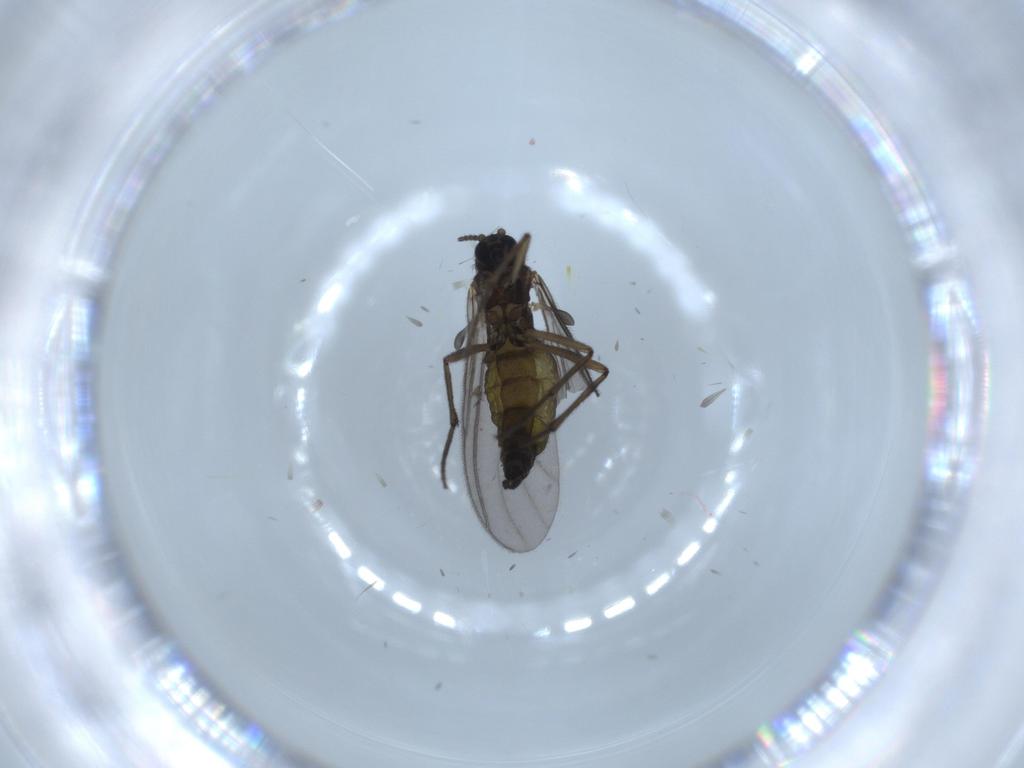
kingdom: Animalia
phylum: Arthropoda
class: Insecta
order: Diptera
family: Sciaridae
